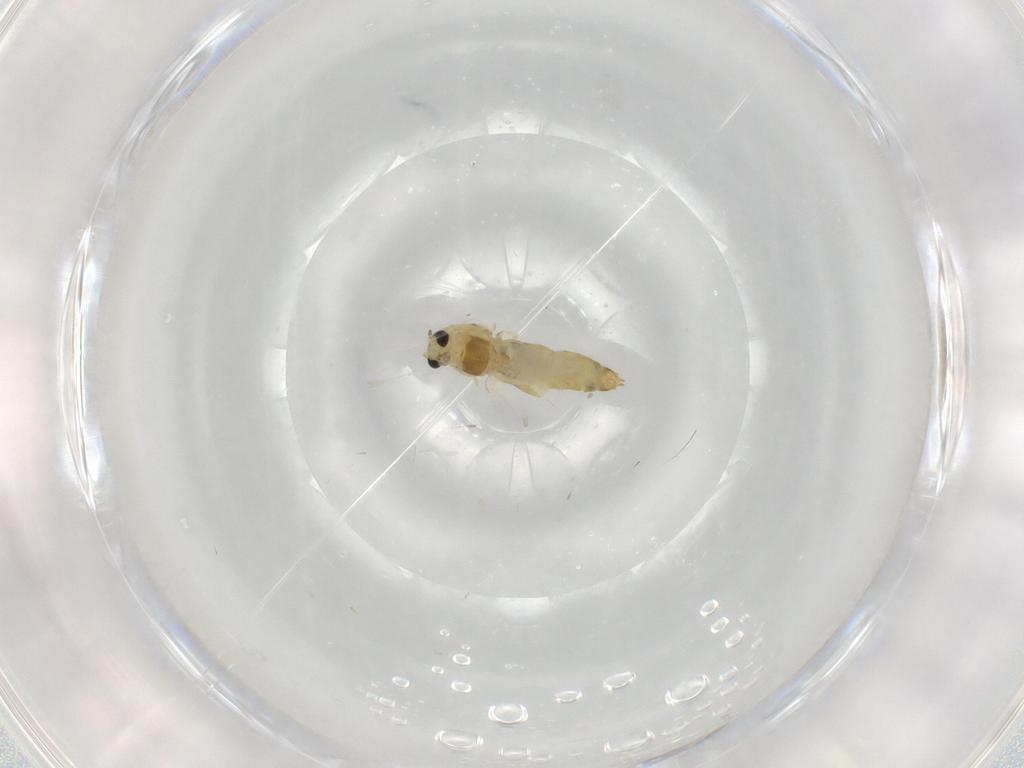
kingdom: Animalia
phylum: Arthropoda
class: Insecta
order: Diptera
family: Chironomidae
